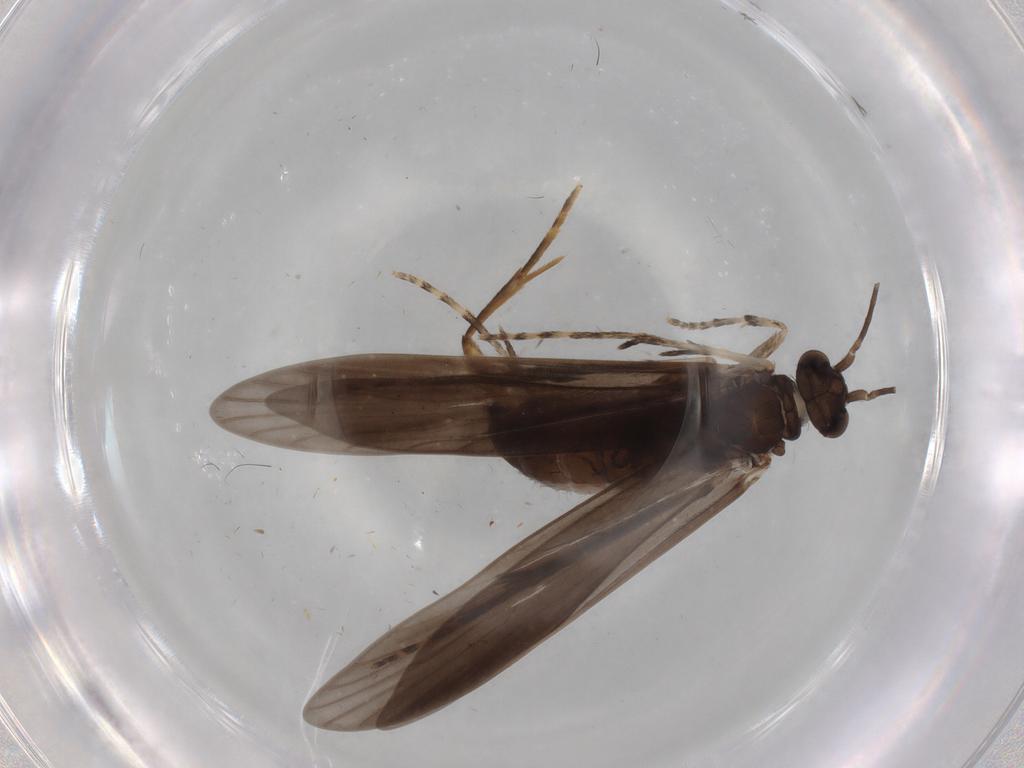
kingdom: Animalia
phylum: Arthropoda
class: Insecta
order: Trichoptera
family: Xiphocentronidae
